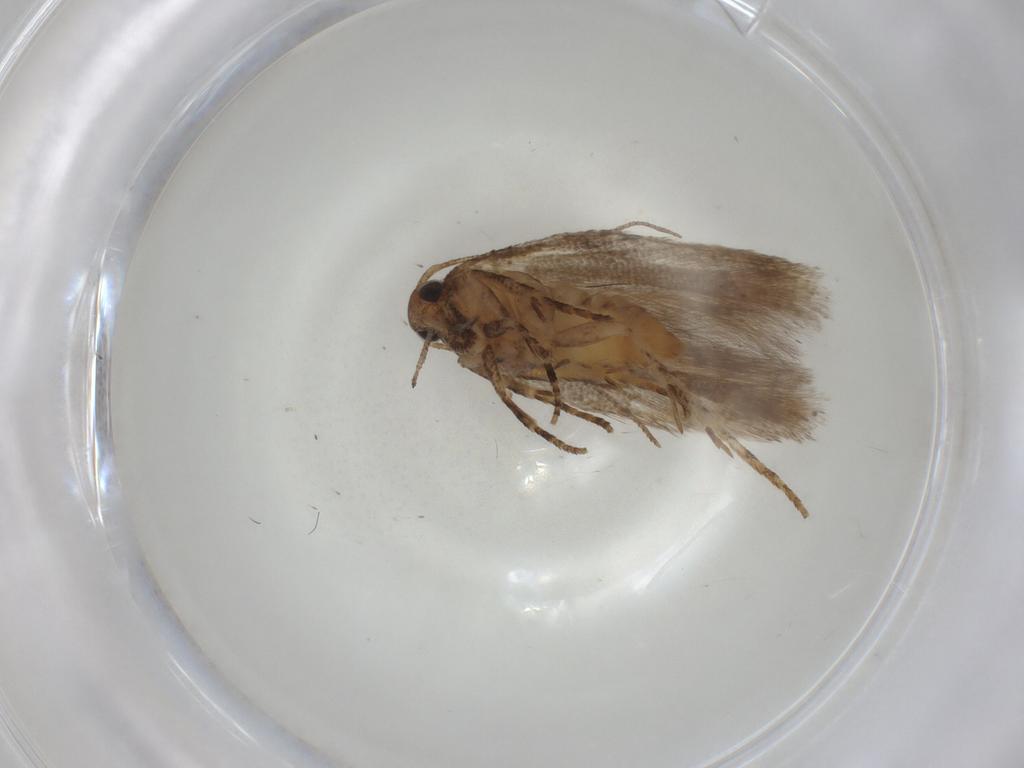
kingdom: Animalia
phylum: Arthropoda
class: Insecta
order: Lepidoptera
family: Gelechiidae
